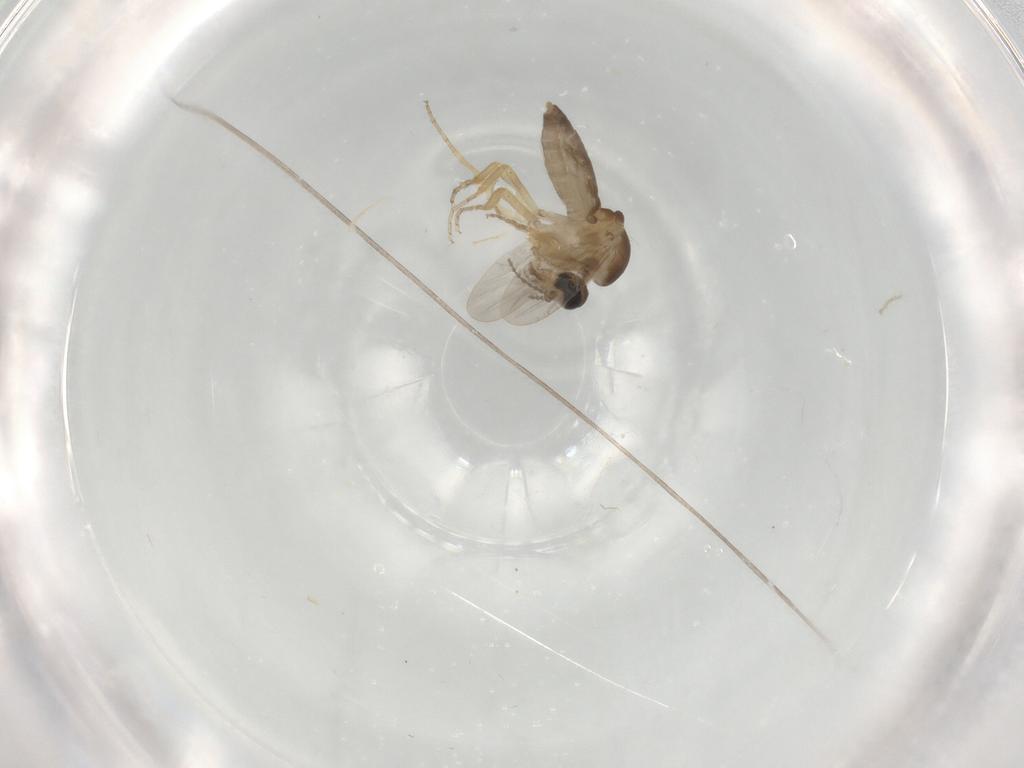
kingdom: Animalia
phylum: Arthropoda
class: Insecta
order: Diptera
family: Ceratopogonidae
